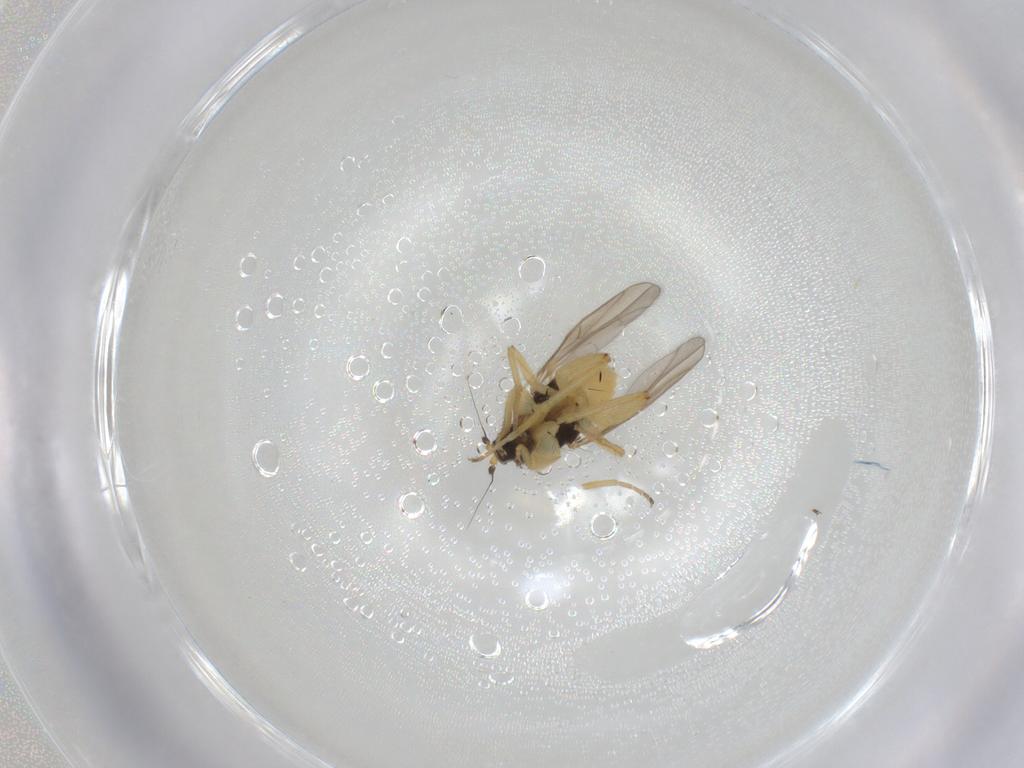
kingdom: Animalia
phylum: Arthropoda
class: Insecta
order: Diptera
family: Hybotidae
